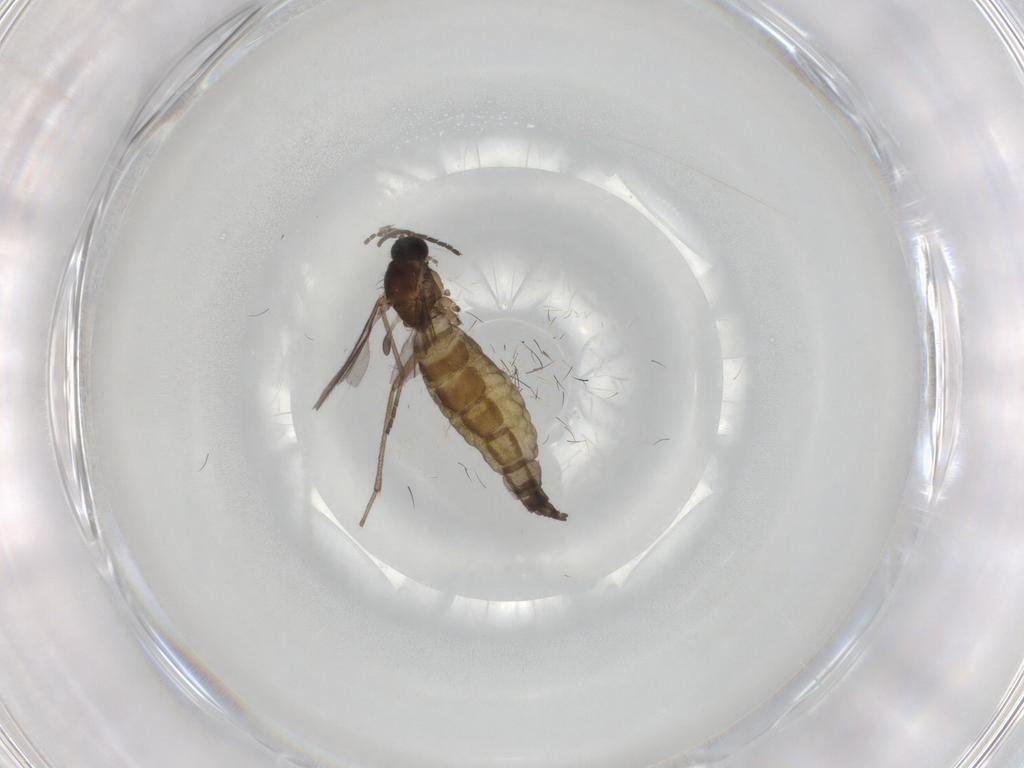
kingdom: Animalia
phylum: Arthropoda
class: Insecta
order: Diptera
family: Sciaridae
